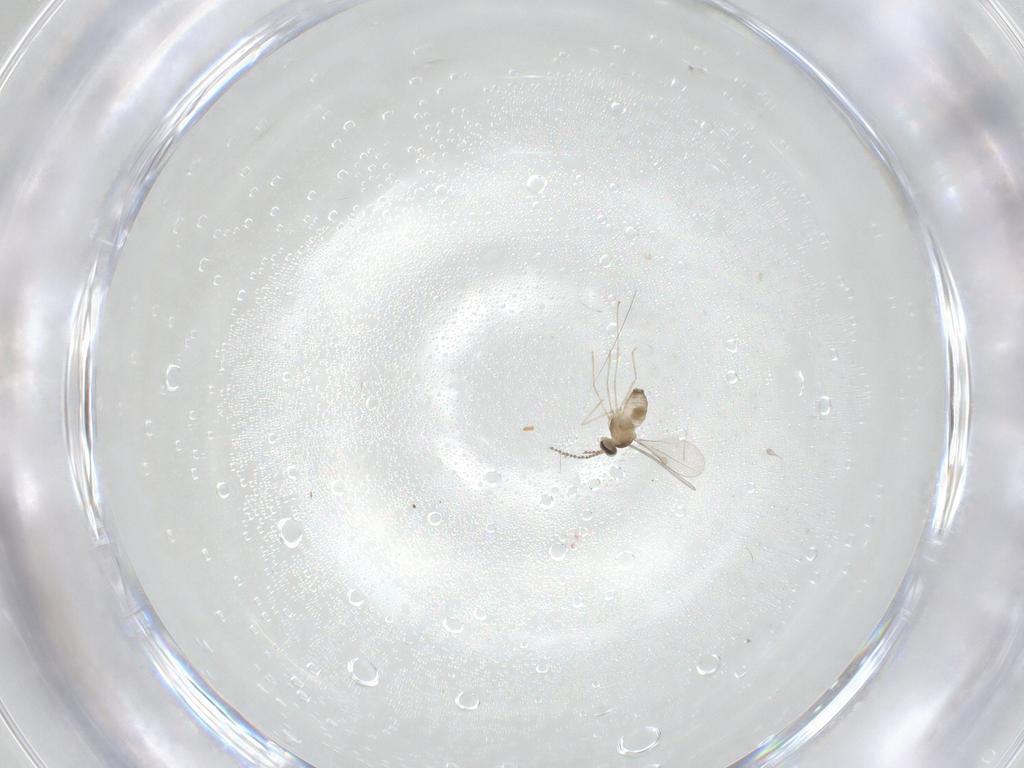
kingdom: Animalia
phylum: Arthropoda
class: Insecta
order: Diptera
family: Cecidomyiidae
